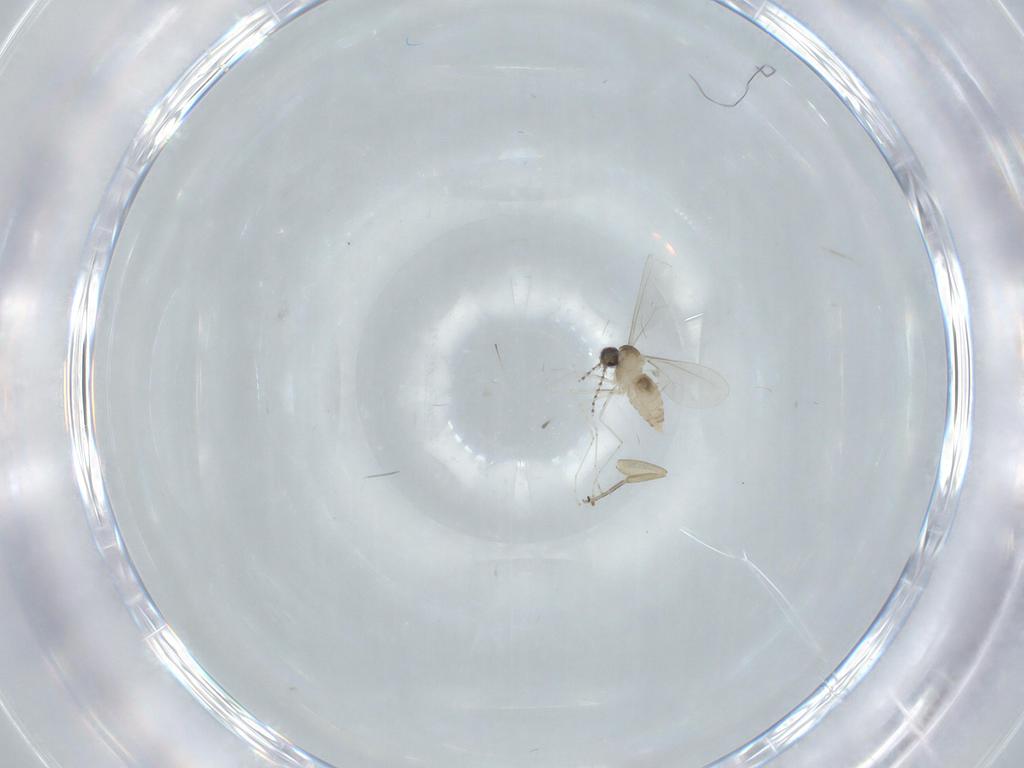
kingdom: Animalia
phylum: Arthropoda
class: Insecta
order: Diptera
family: Cecidomyiidae
